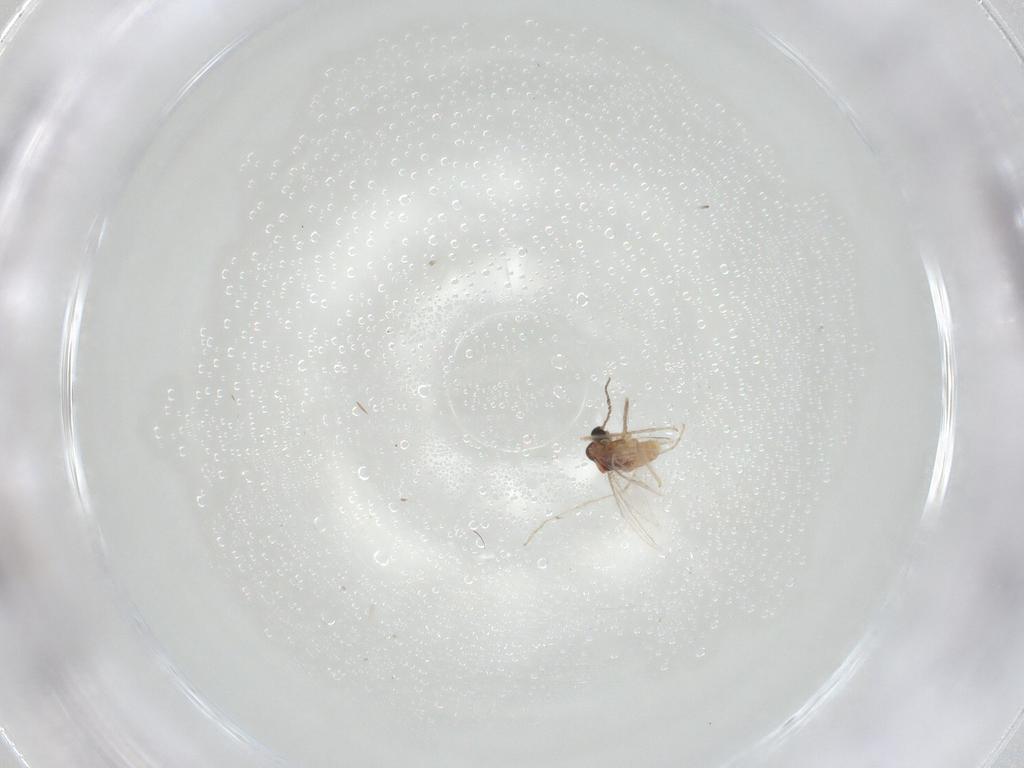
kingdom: Animalia
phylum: Arthropoda
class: Insecta
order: Diptera
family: Cecidomyiidae
